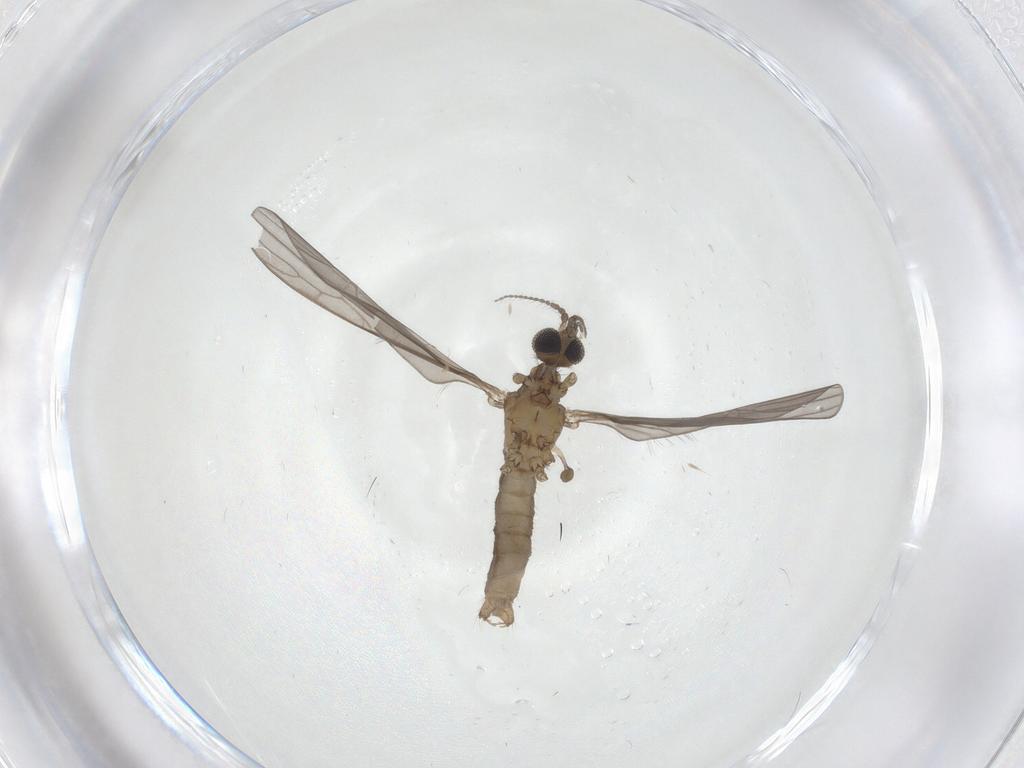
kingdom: Animalia
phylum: Arthropoda
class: Insecta
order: Diptera
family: Limoniidae
